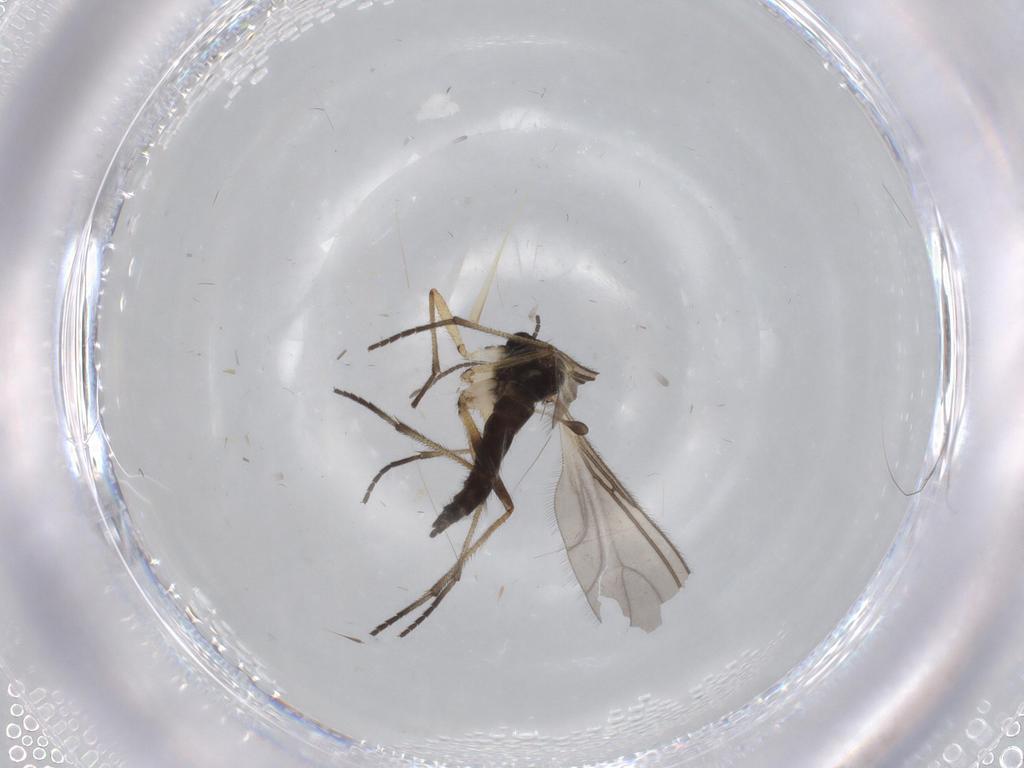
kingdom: Animalia
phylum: Arthropoda
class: Insecta
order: Diptera
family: Sciaridae
